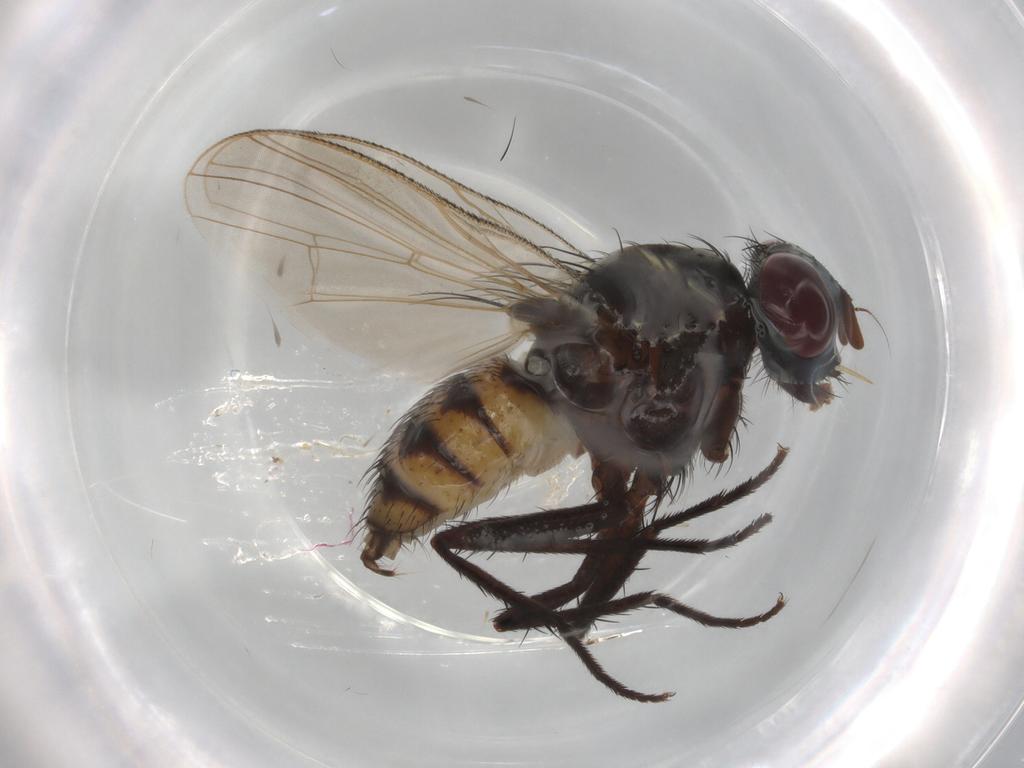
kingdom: Animalia
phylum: Arthropoda
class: Insecta
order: Diptera
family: Anthomyiidae
